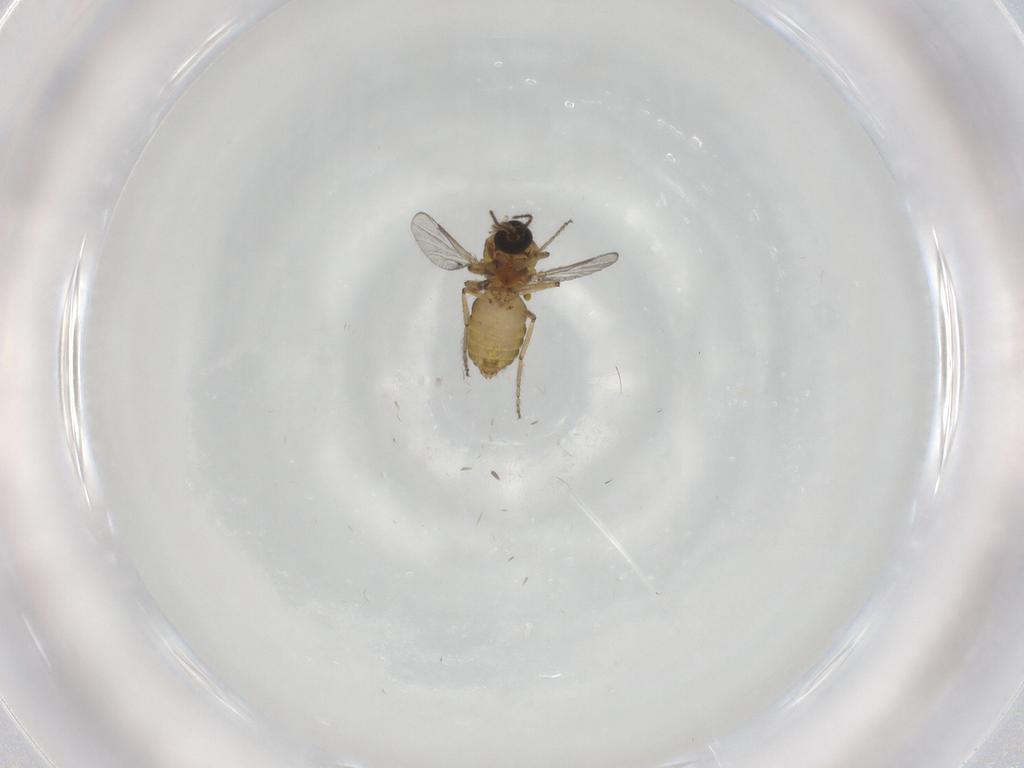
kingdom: Animalia
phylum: Arthropoda
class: Insecta
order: Diptera
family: Ceratopogonidae
